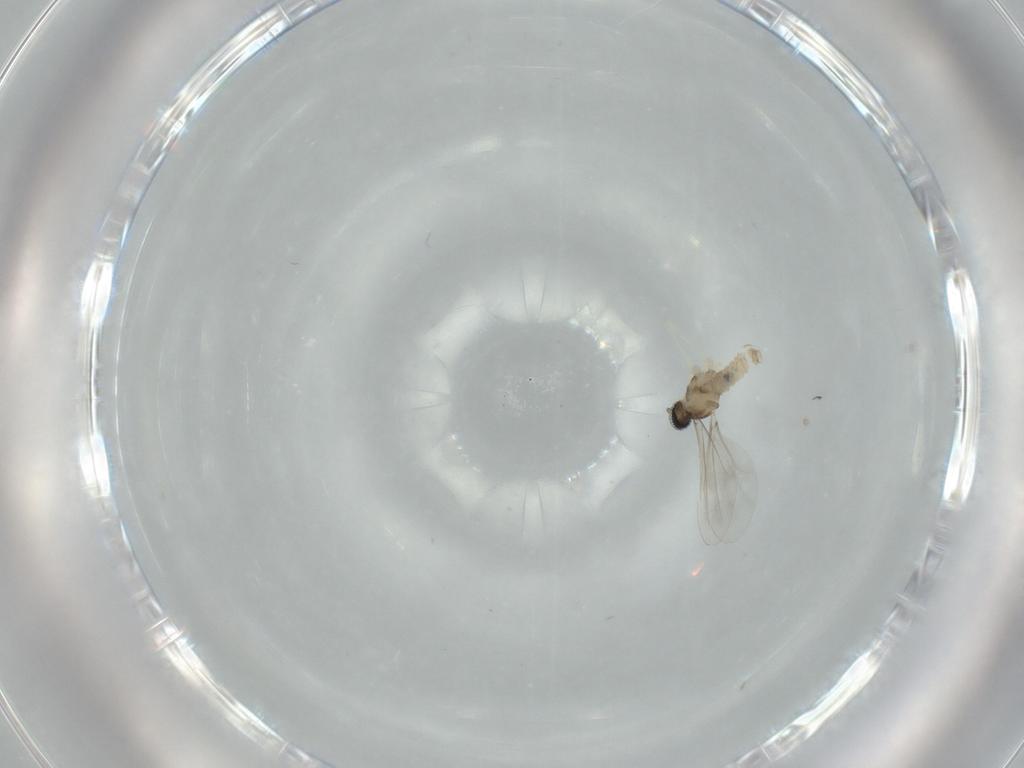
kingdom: Animalia
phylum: Arthropoda
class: Insecta
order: Diptera
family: Cecidomyiidae
